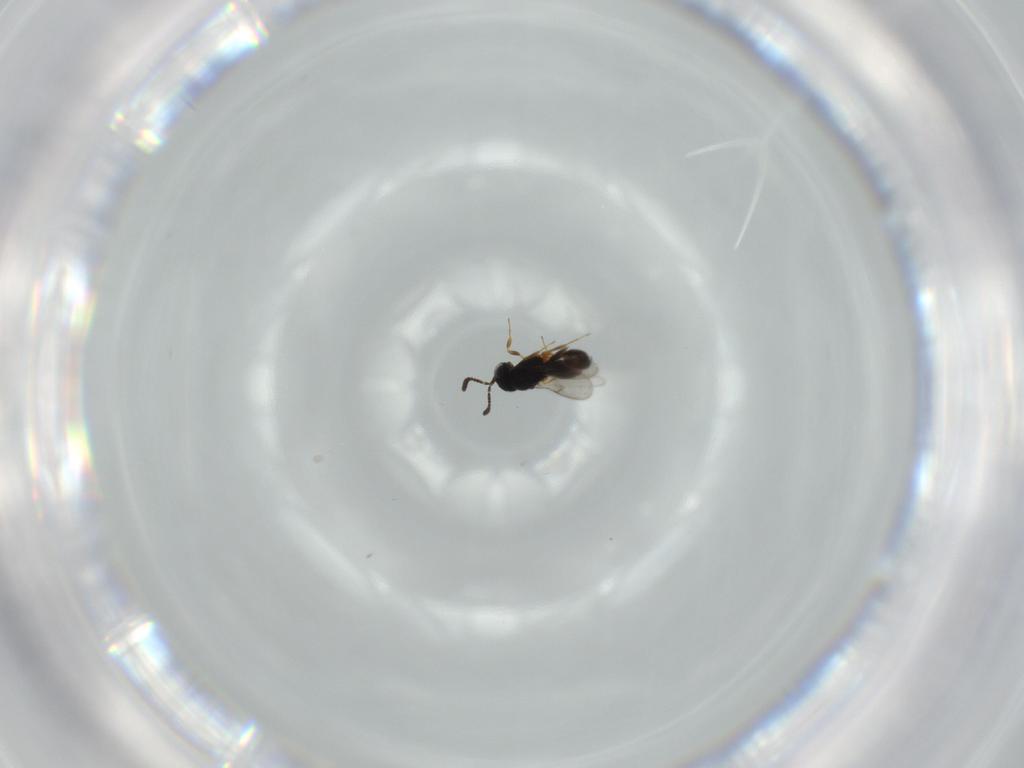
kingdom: Animalia
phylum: Arthropoda
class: Insecta
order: Hymenoptera
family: Scelionidae
